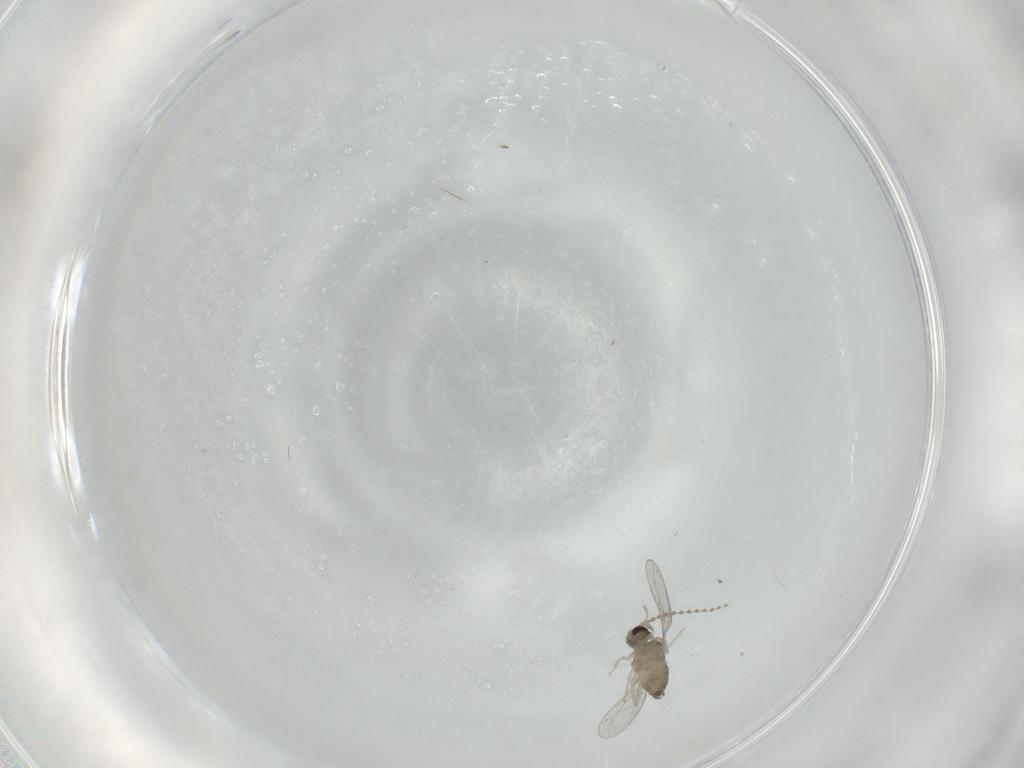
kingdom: Animalia
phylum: Arthropoda
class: Insecta
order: Diptera
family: Cecidomyiidae
